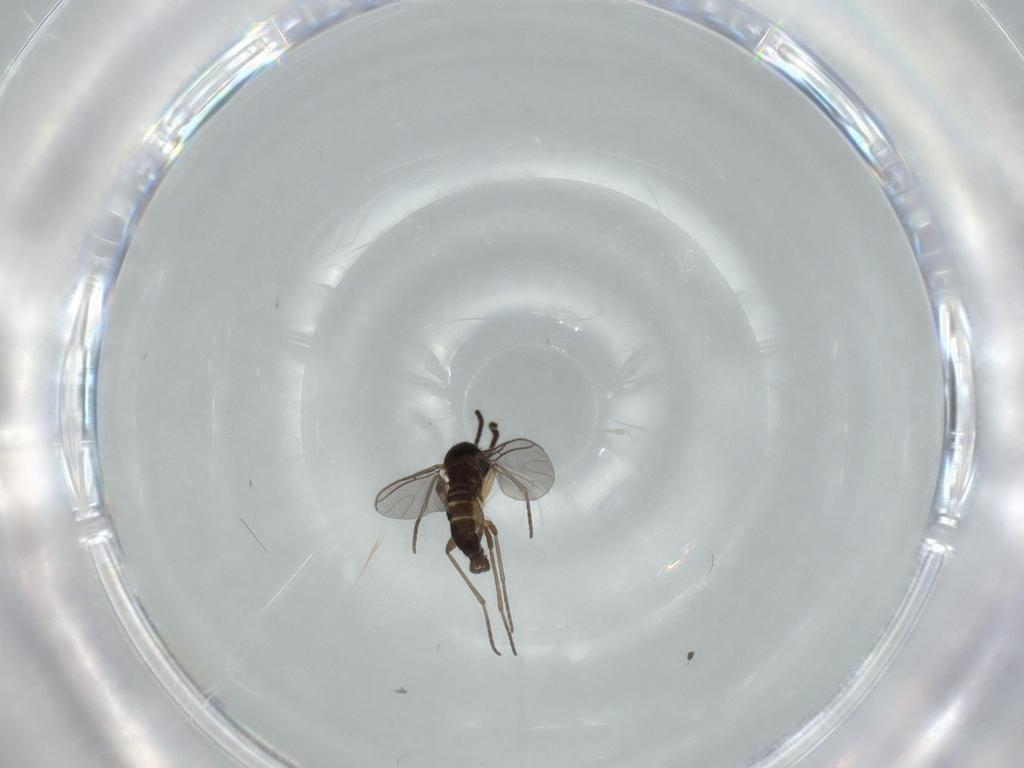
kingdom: Animalia
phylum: Arthropoda
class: Insecta
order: Diptera
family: Sciaridae
